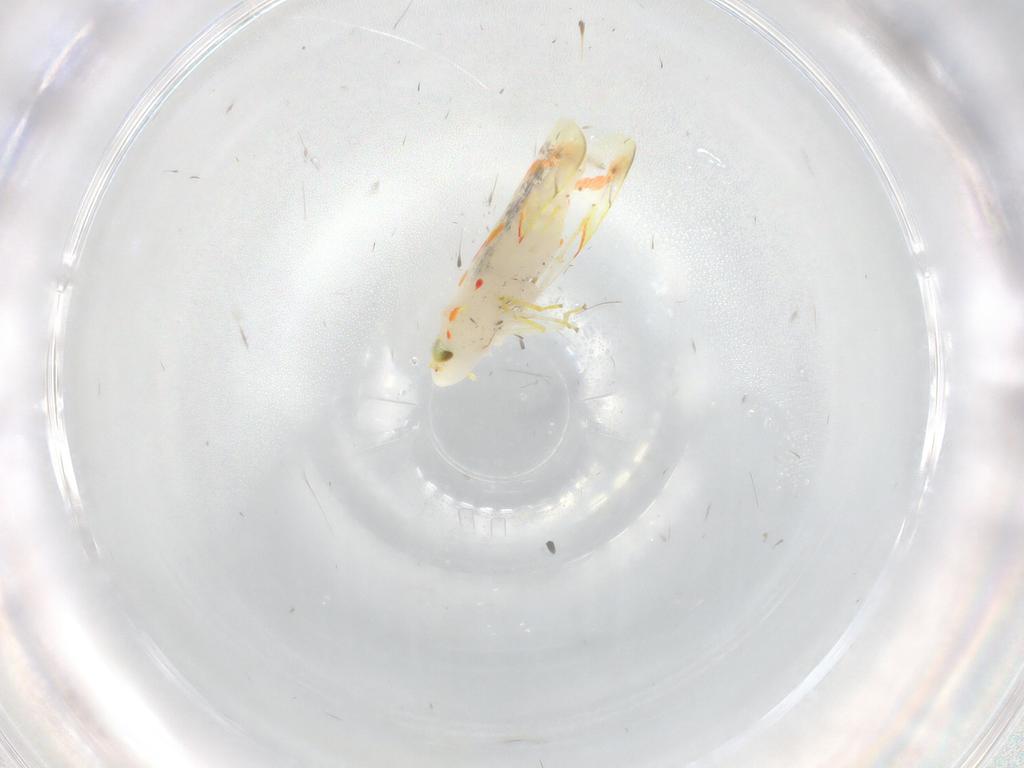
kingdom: Animalia
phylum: Arthropoda
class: Insecta
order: Hemiptera
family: Cicadellidae
